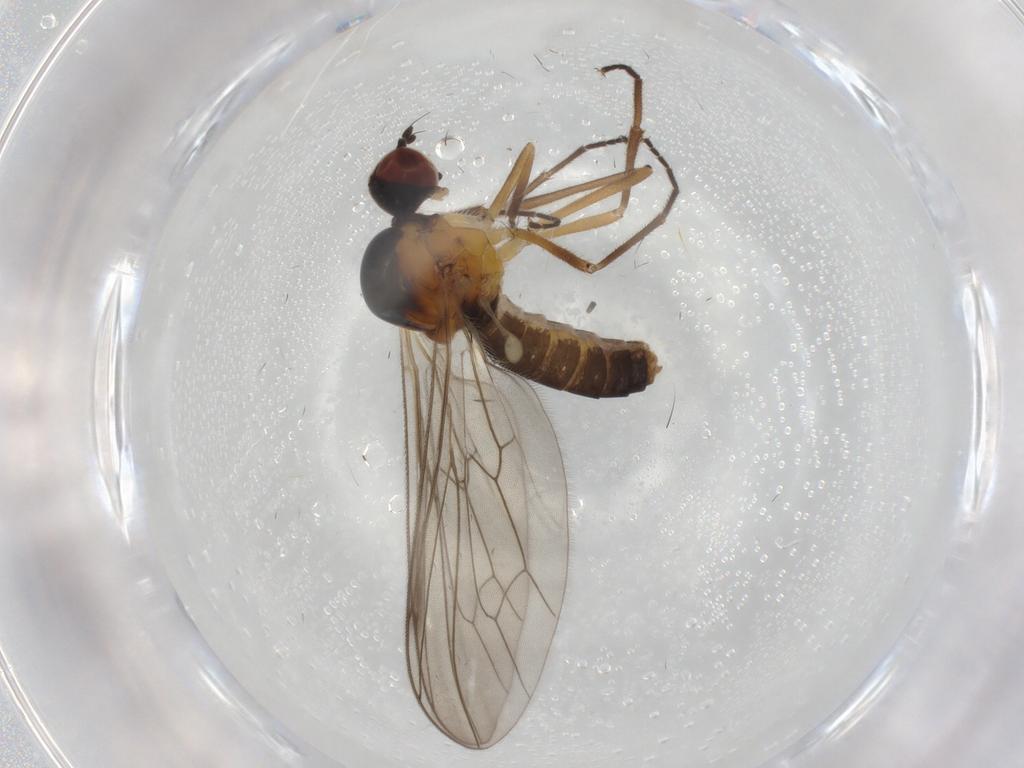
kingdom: Animalia
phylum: Arthropoda
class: Insecta
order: Diptera
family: Hybotidae
